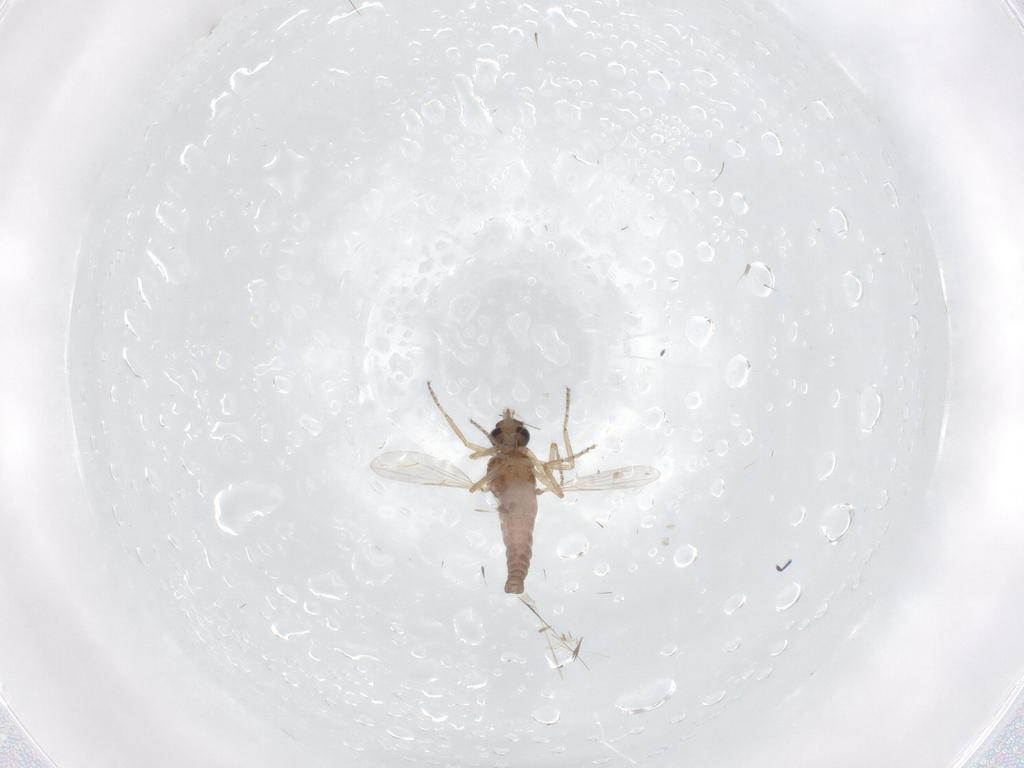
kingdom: Animalia
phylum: Arthropoda
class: Insecta
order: Diptera
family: Ceratopogonidae
